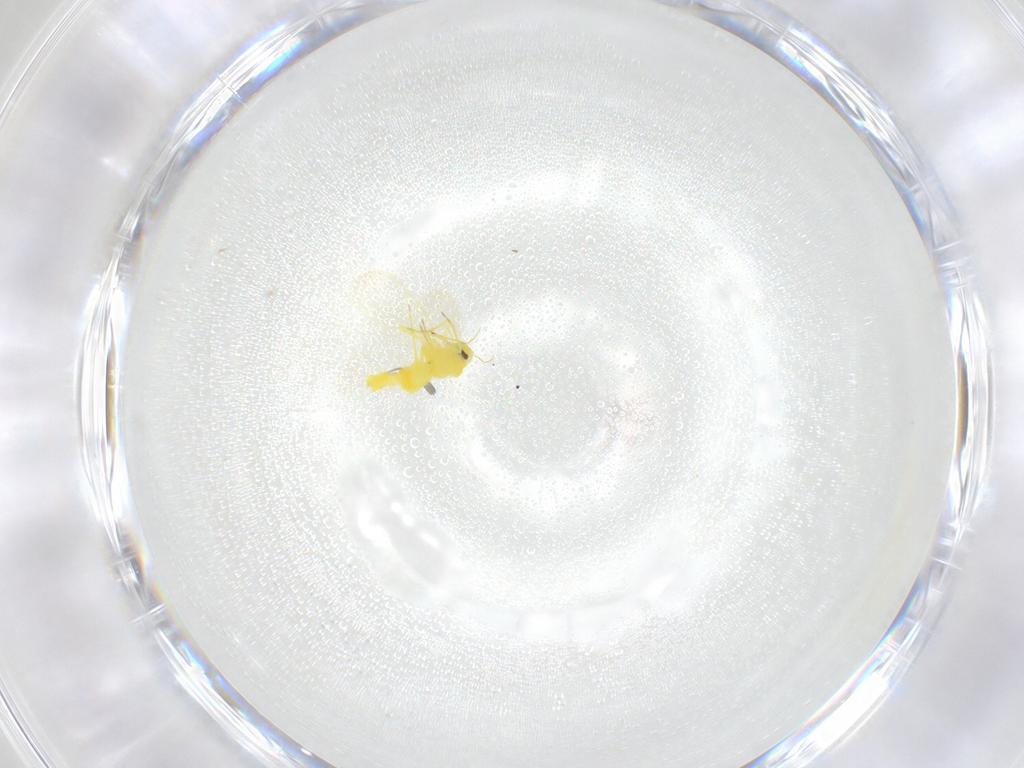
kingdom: Animalia
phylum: Arthropoda
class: Insecta
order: Hemiptera
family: Aleyrodidae
